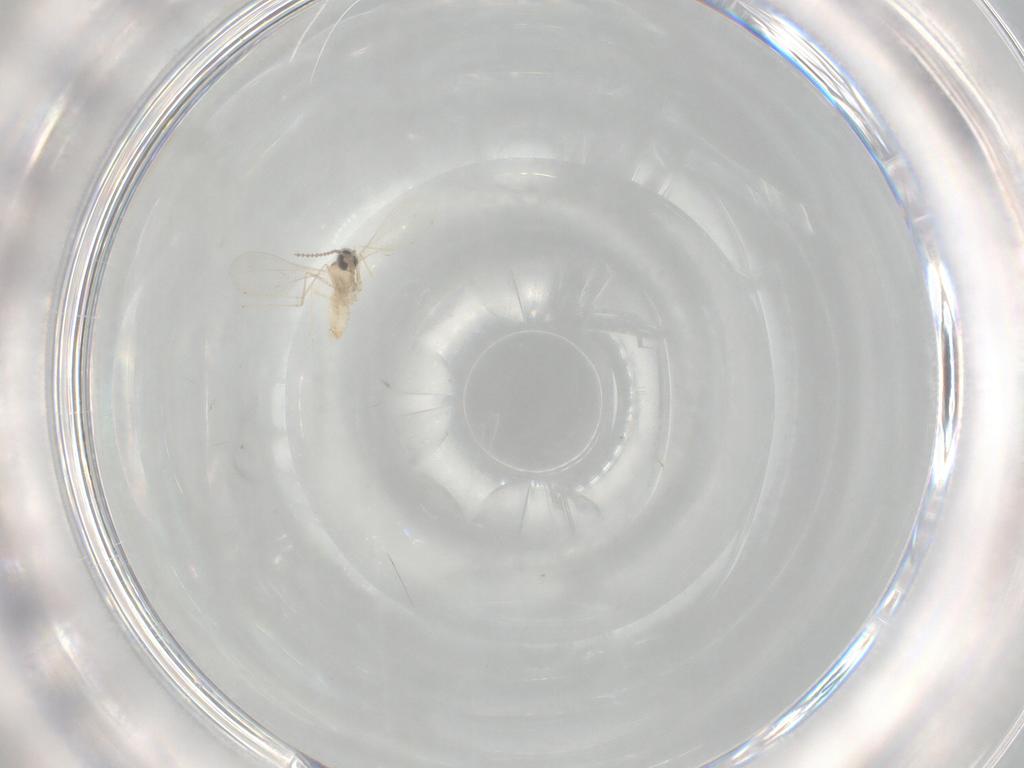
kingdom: Animalia
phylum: Arthropoda
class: Insecta
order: Diptera
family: Cecidomyiidae
